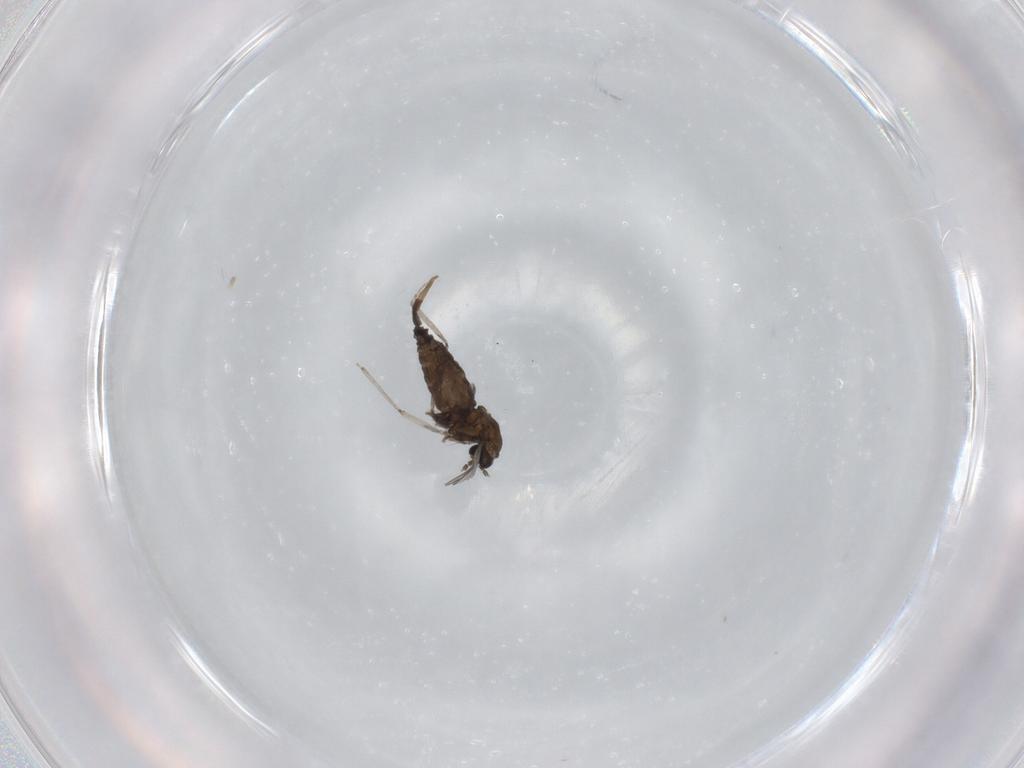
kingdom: Animalia
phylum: Arthropoda
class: Insecta
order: Diptera
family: Cecidomyiidae
